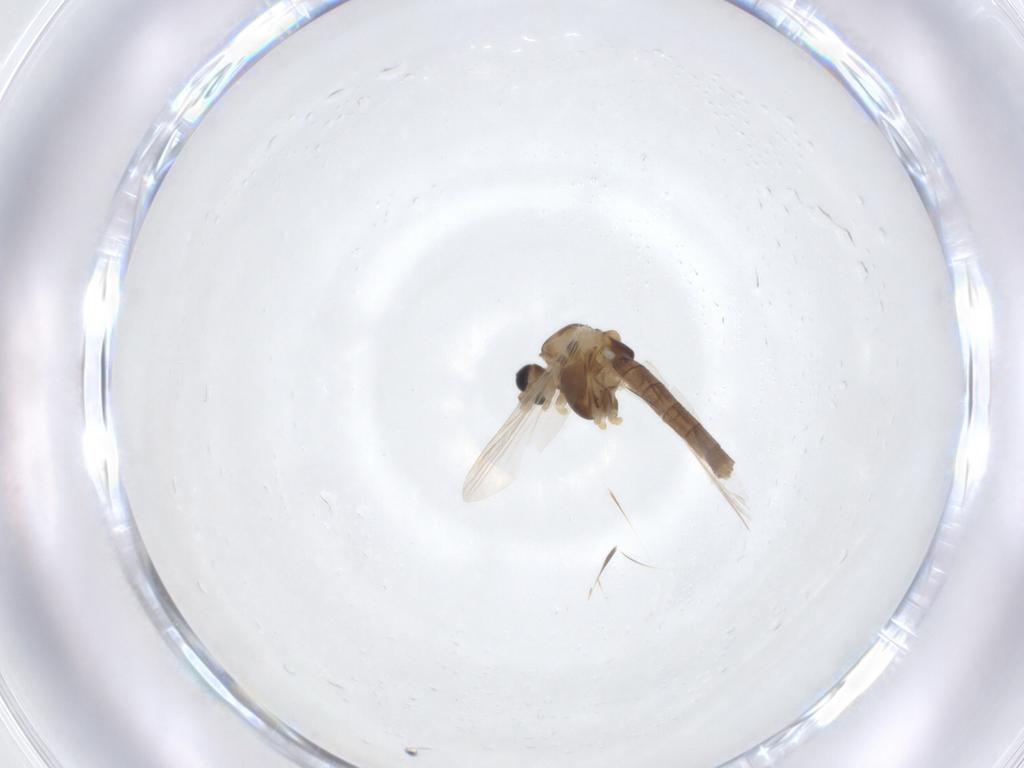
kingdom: Animalia
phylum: Arthropoda
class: Insecta
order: Diptera
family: Chironomidae
